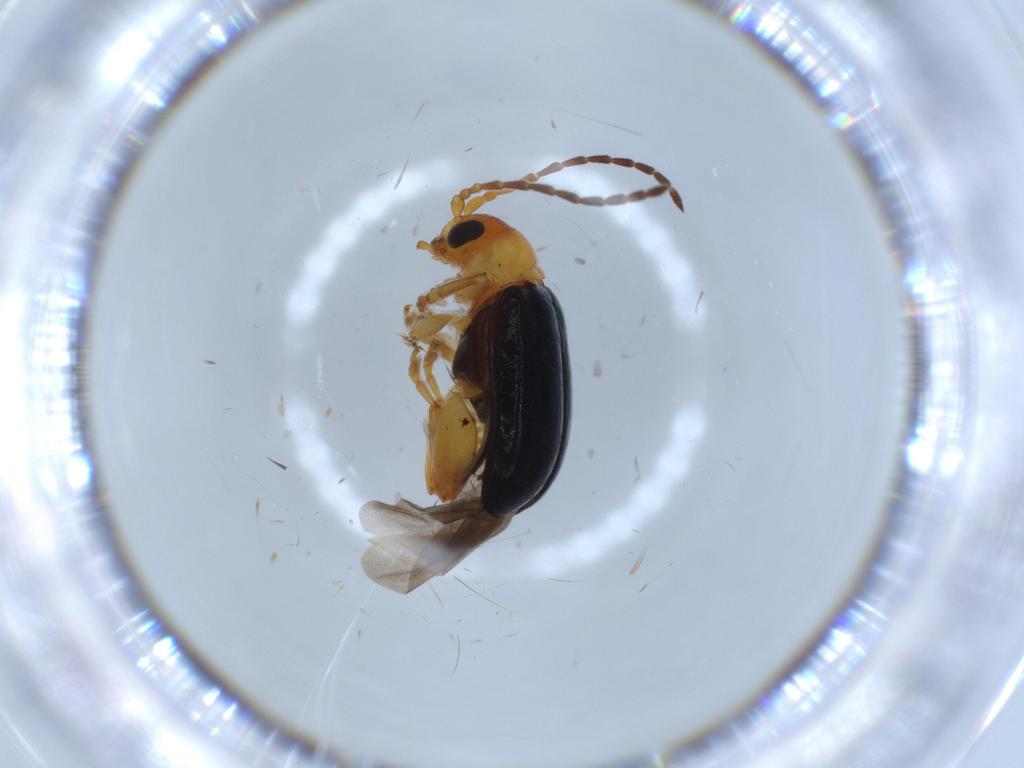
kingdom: Animalia
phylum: Arthropoda
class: Insecta
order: Coleoptera
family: Chrysomelidae
